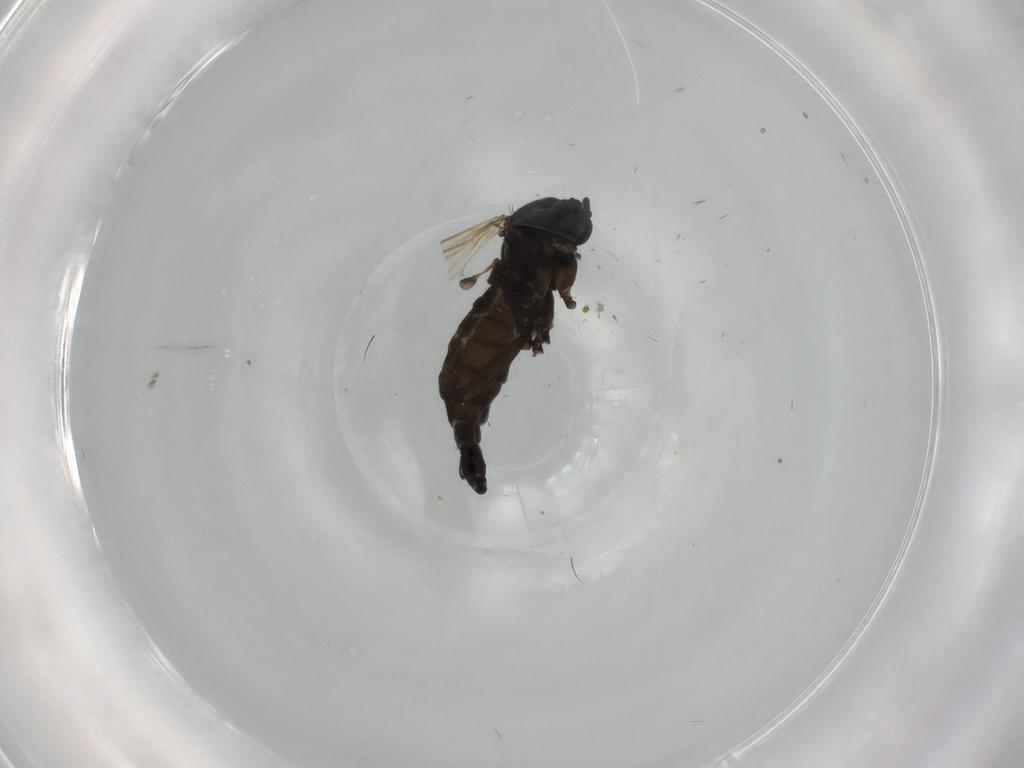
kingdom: Animalia
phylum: Arthropoda
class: Insecta
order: Diptera
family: Sciaridae
